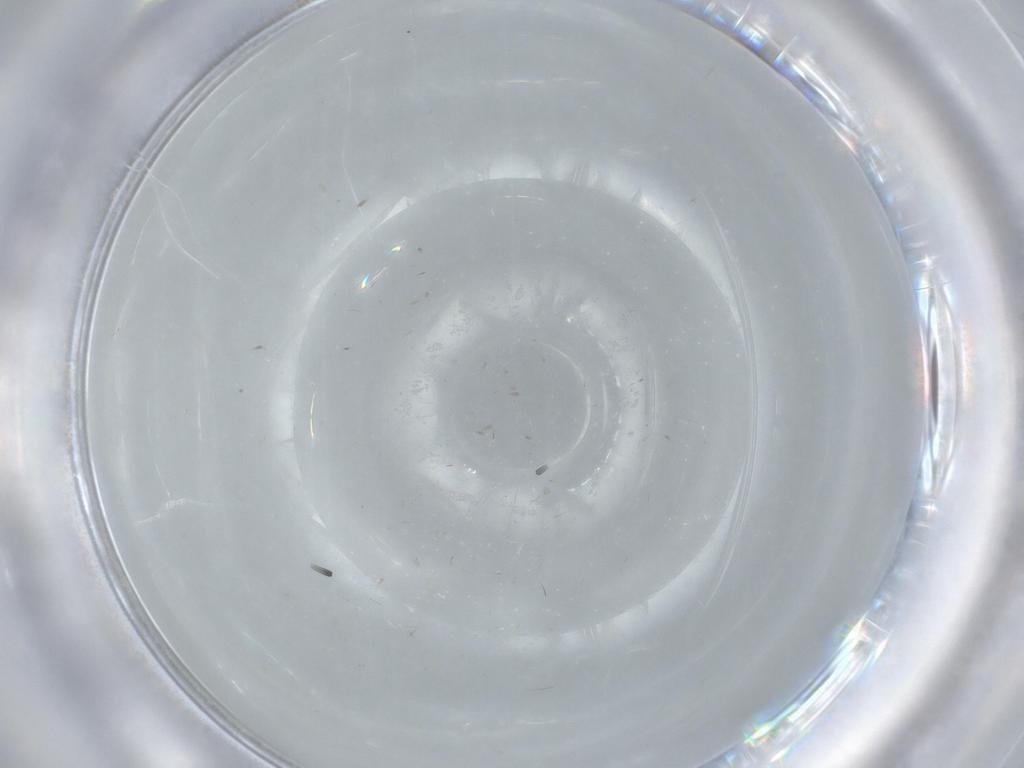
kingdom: Animalia
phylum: Arthropoda
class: Insecta
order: Diptera
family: Cecidomyiidae
